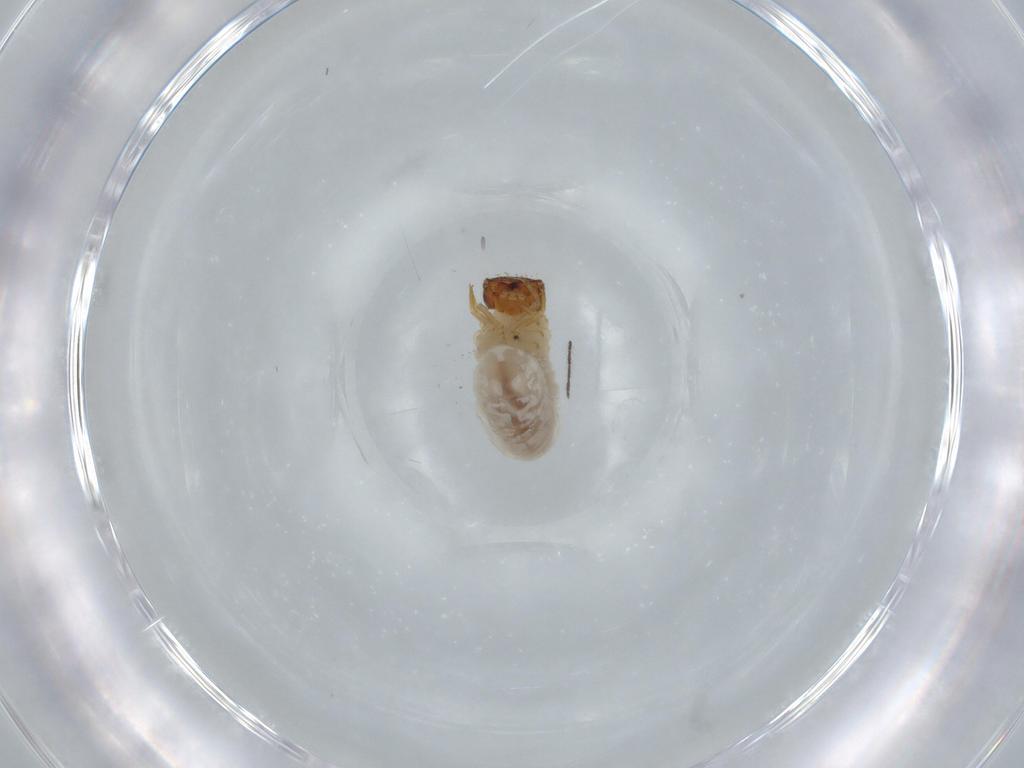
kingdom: Animalia
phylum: Arthropoda
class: Insecta
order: Coleoptera
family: Chrysomelidae
